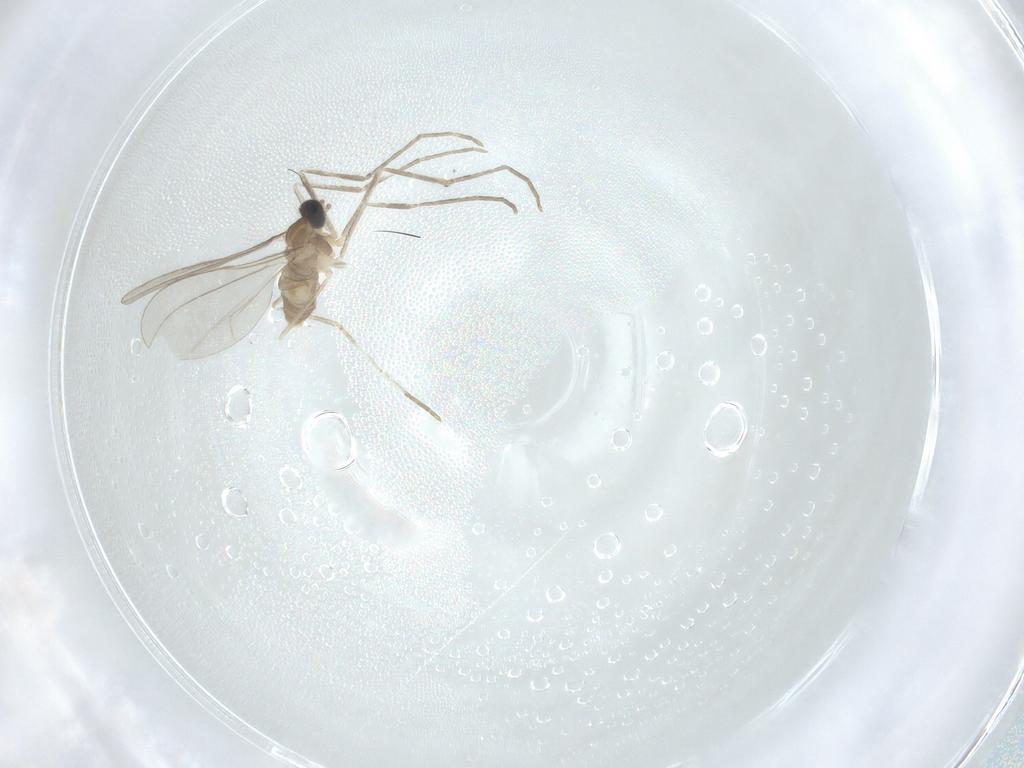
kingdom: Animalia
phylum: Arthropoda
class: Insecta
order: Diptera
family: Cecidomyiidae
